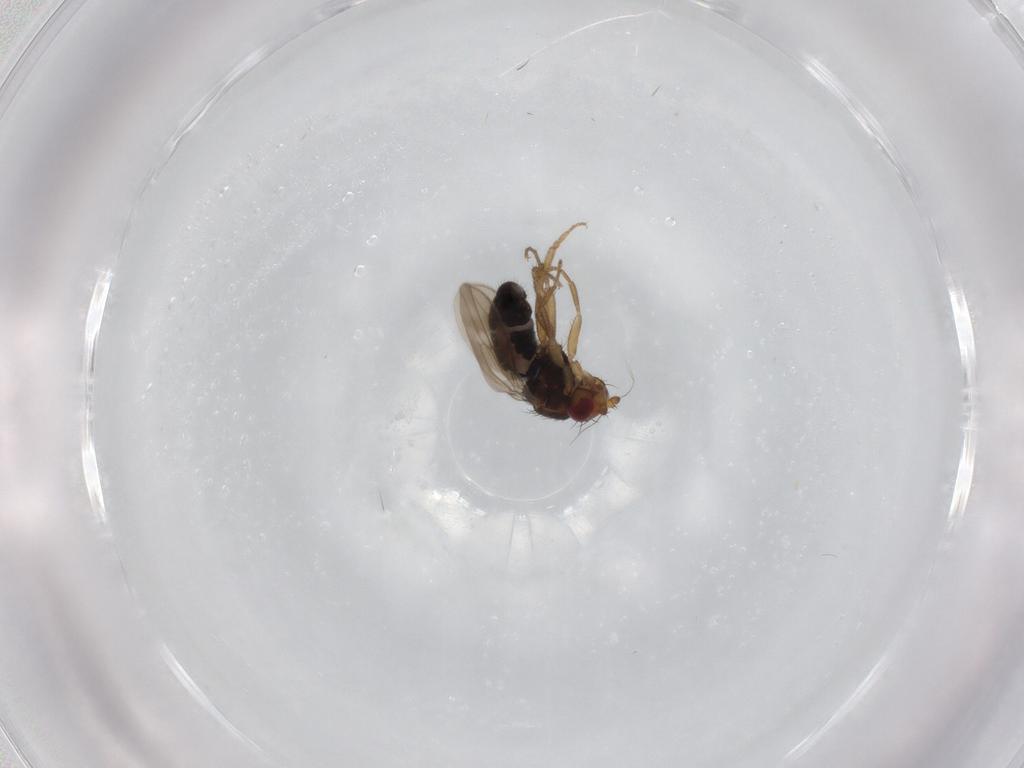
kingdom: Animalia
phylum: Arthropoda
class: Insecta
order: Diptera
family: Sphaeroceridae
